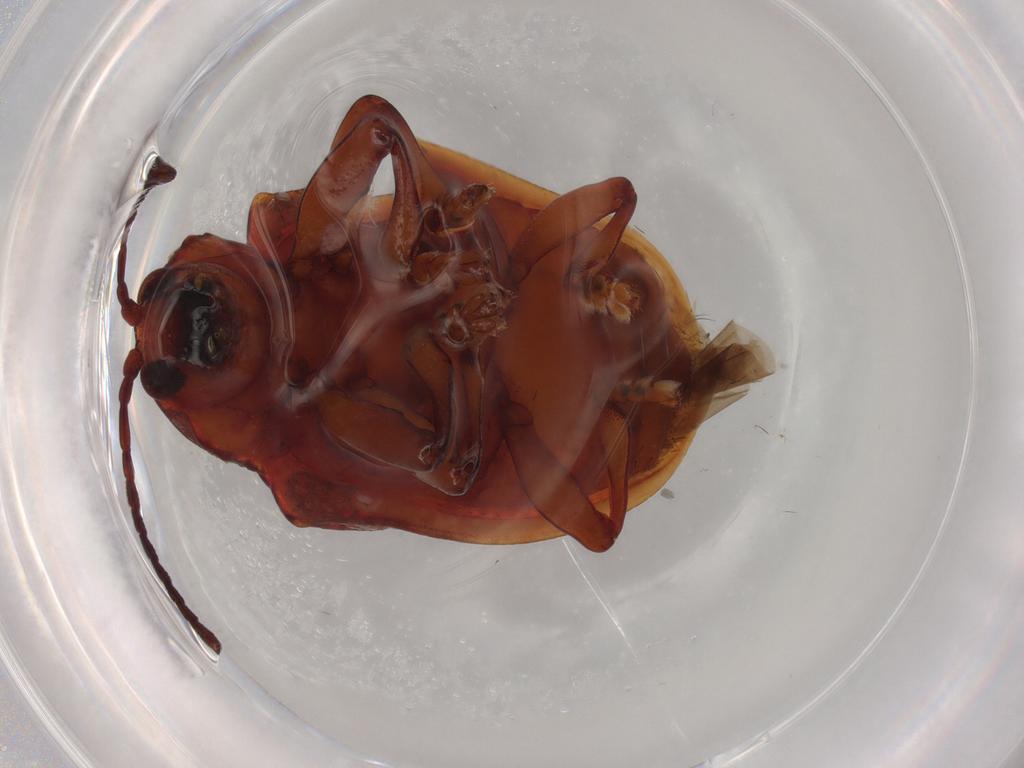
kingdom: Animalia
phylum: Arthropoda
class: Insecta
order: Coleoptera
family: Chrysomelidae
